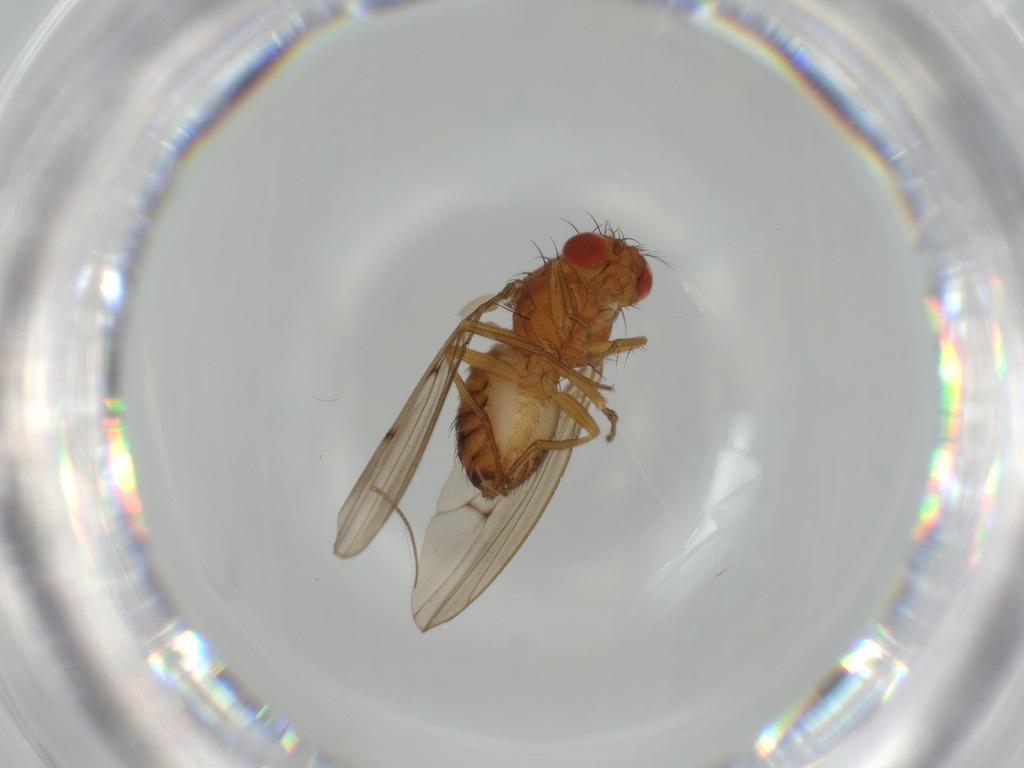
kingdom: Animalia
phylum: Arthropoda
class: Insecta
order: Diptera
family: Drosophilidae
